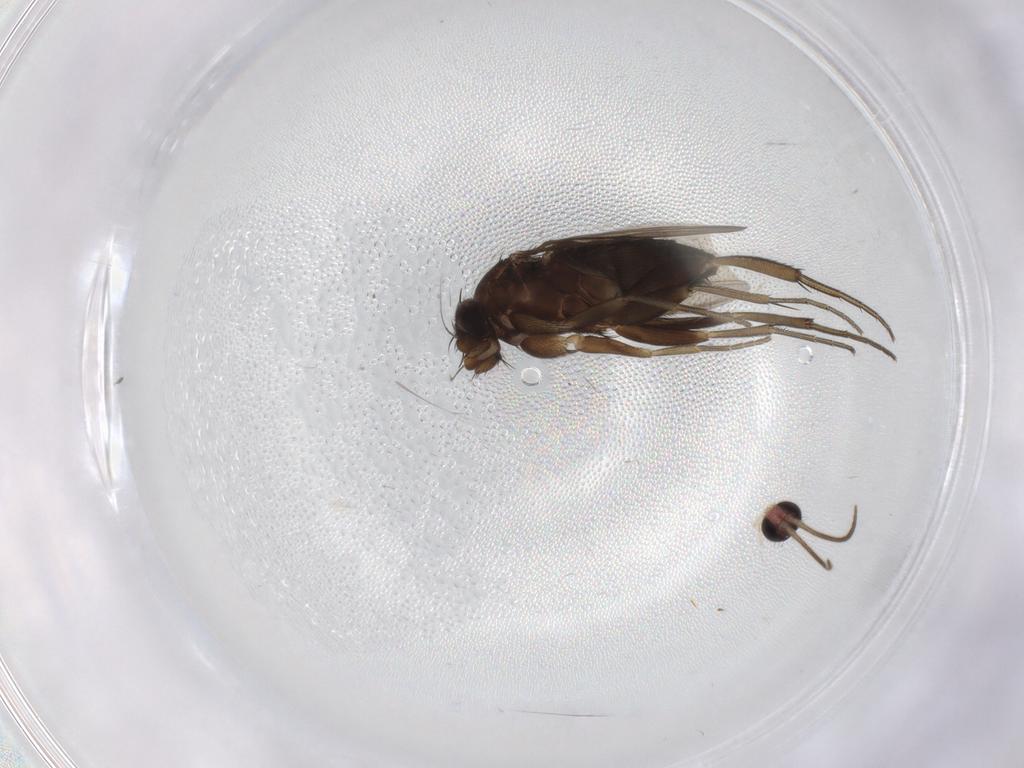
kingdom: Animalia
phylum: Arthropoda
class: Insecta
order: Diptera
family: Mycetophilidae
